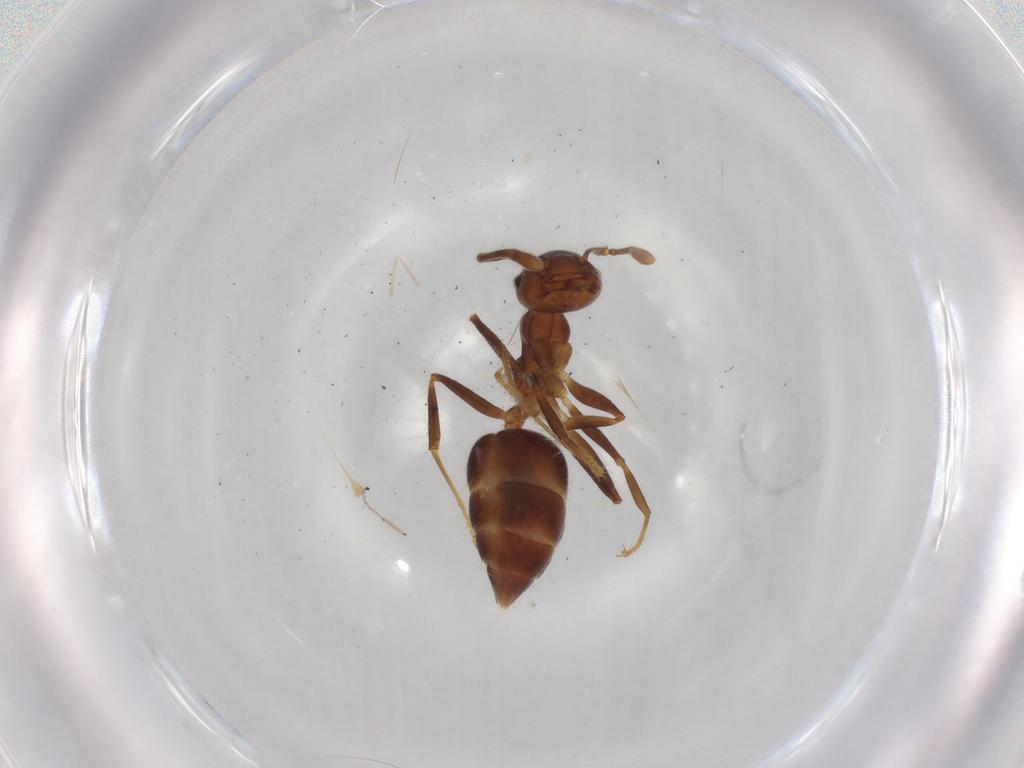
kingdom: Animalia
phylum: Arthropoda
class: Insecta
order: Hymenoptera
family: Formicidae
